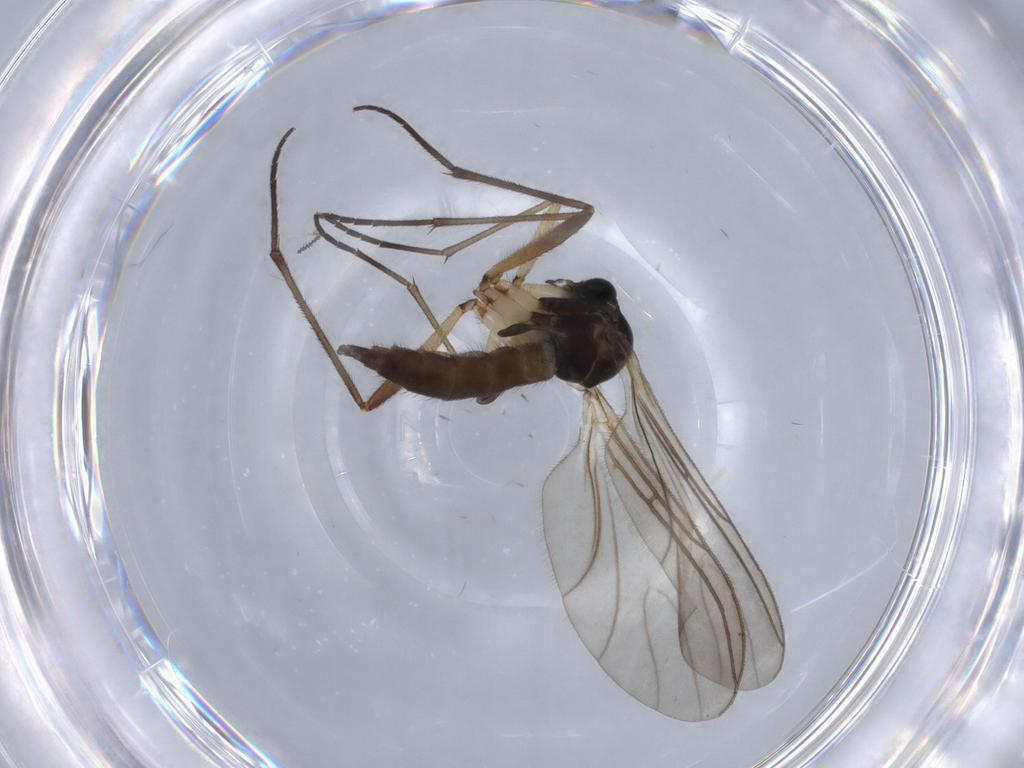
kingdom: Animalia
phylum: Arthropoda
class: Insecta
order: Diptera
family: Sciaridae
